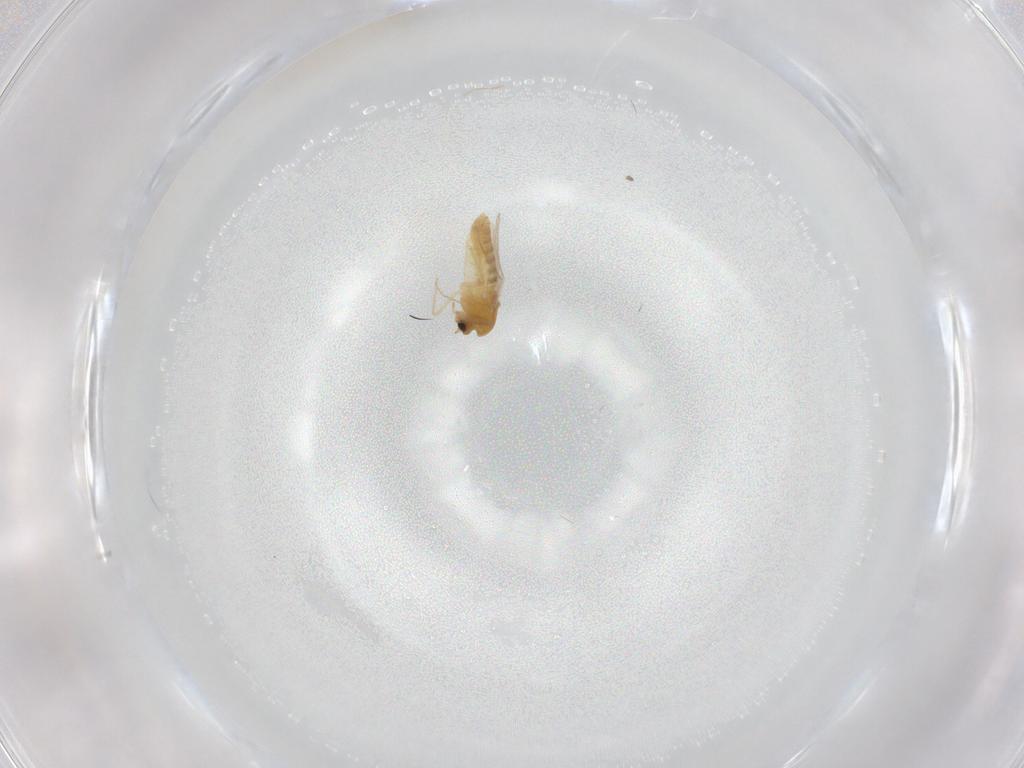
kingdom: Animalia
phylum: Arthropoda
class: Insecta
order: Diptera
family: Chironomidae
